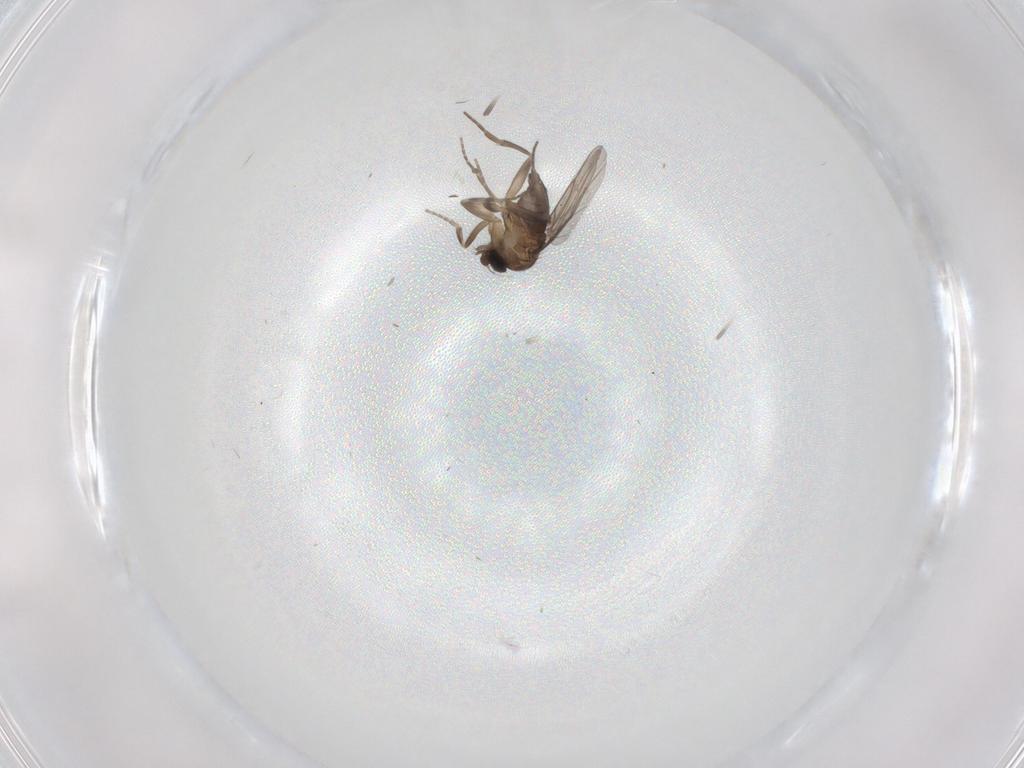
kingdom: Animalia
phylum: Arthropoda
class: Insecta
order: Diptera
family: Phoridae
